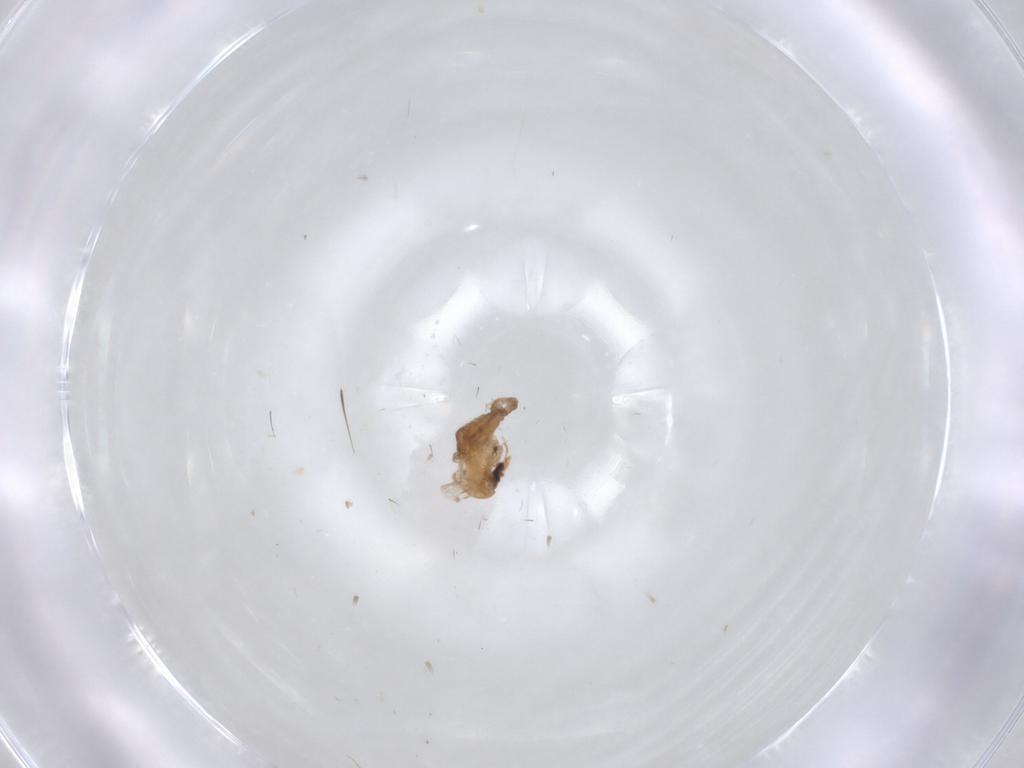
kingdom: Animalia
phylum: Arthropoda
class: Insecta
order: Diptera
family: Psychodidae
